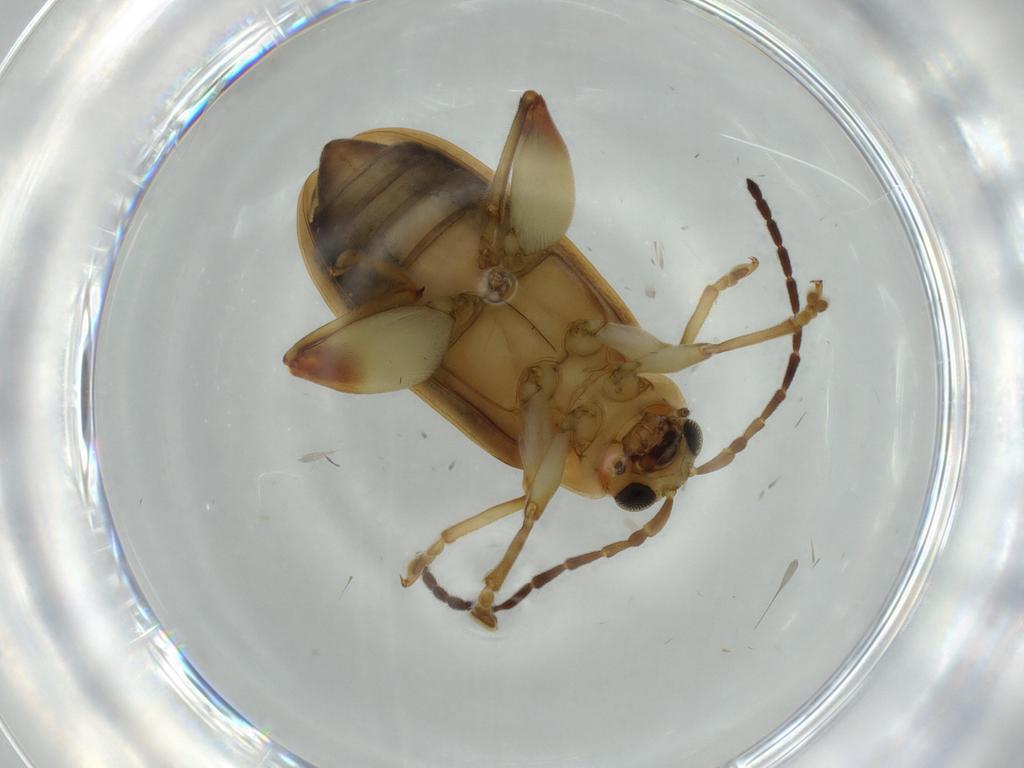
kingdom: Animalia
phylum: Arthropoda
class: Insecta
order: Coleoptera
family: Chrysomelidae
